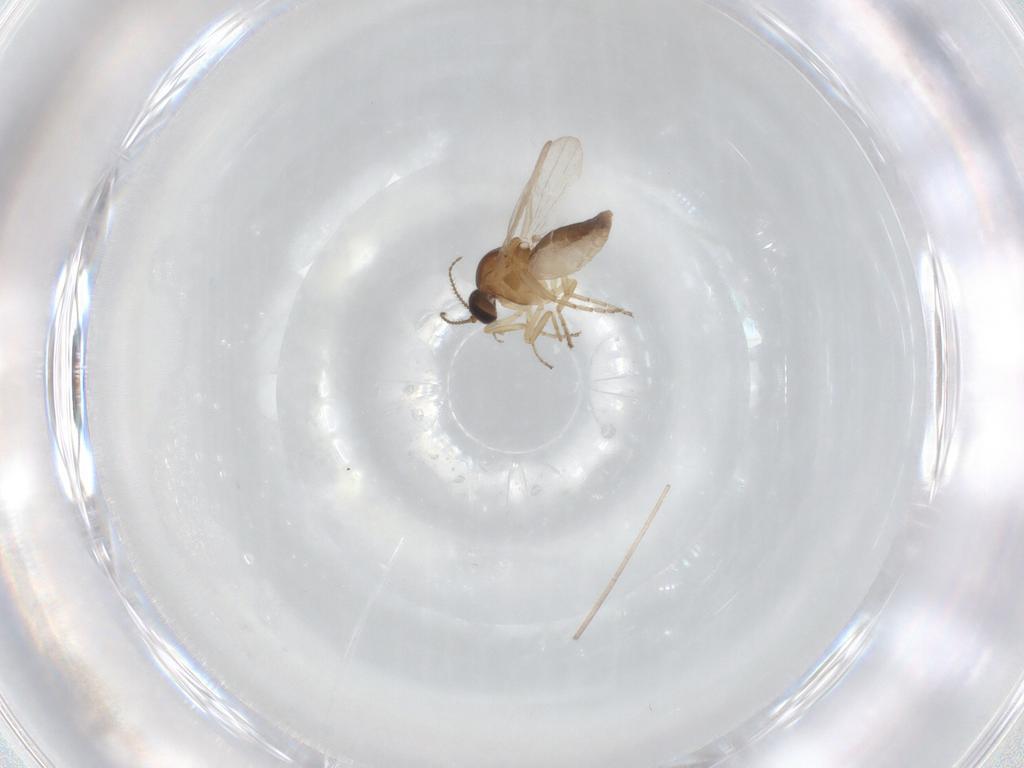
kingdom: Animalia
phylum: Arthropoda
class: Insecta
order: Diptera
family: Ceratopogonidae
